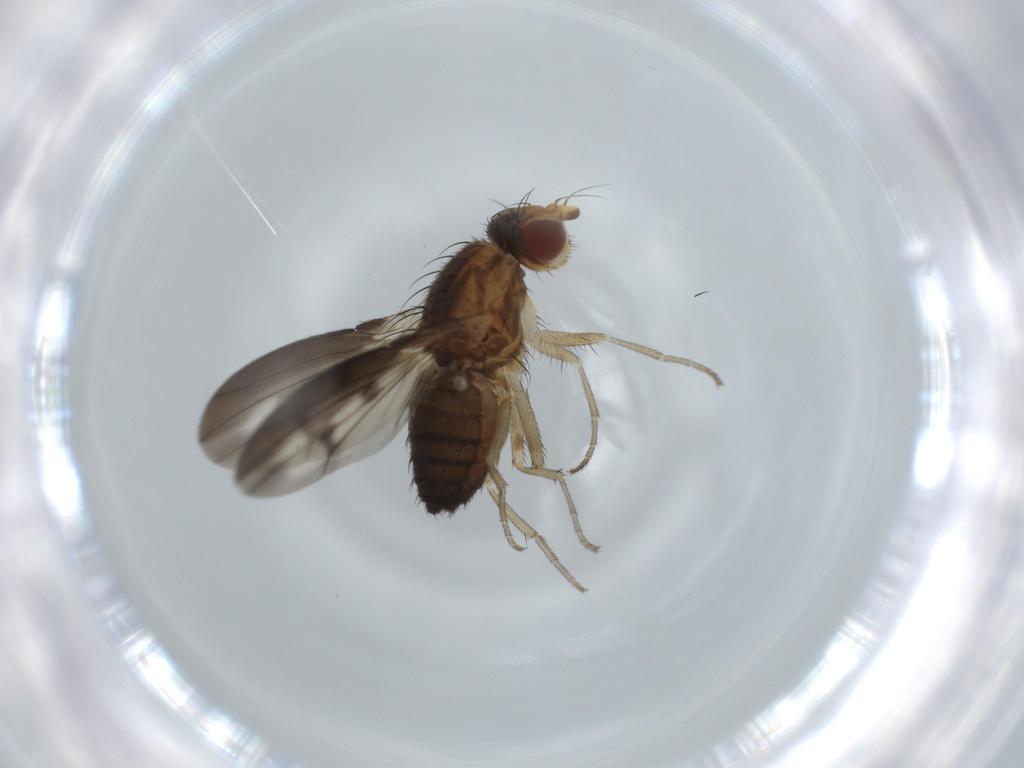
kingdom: Animalia
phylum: Arthropoda
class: Insecta
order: Diptera
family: Heleomyzidae
